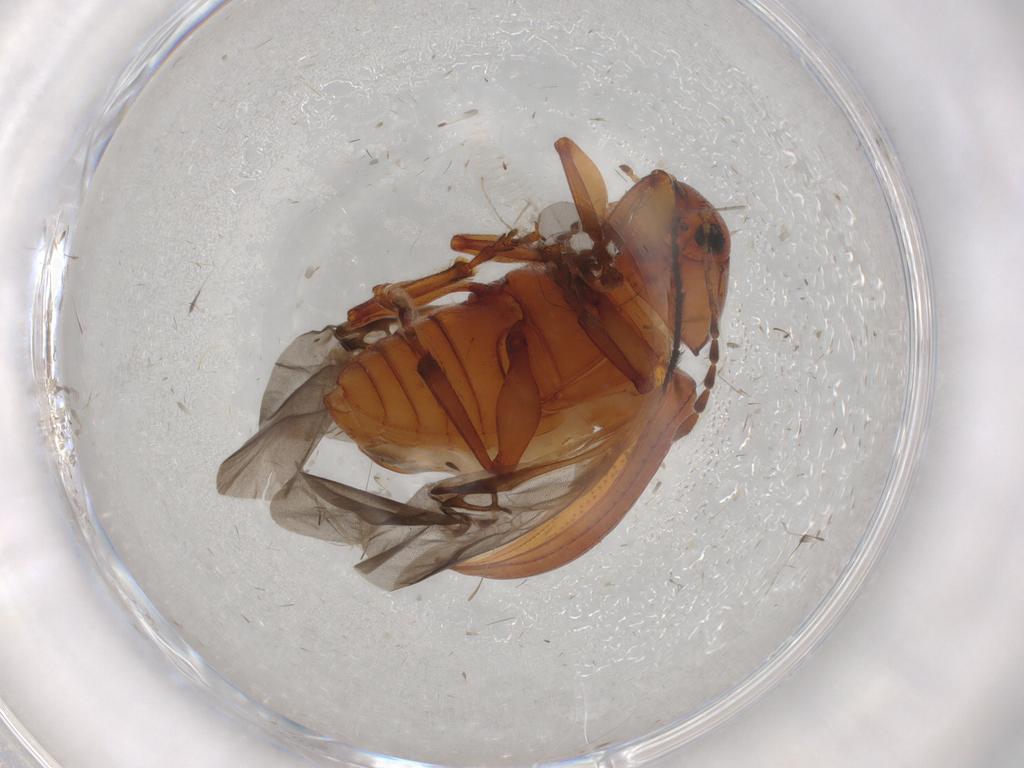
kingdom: Animalia
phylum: Arthropoda
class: Insecta
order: Coleoptera
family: Chrysomelidae
